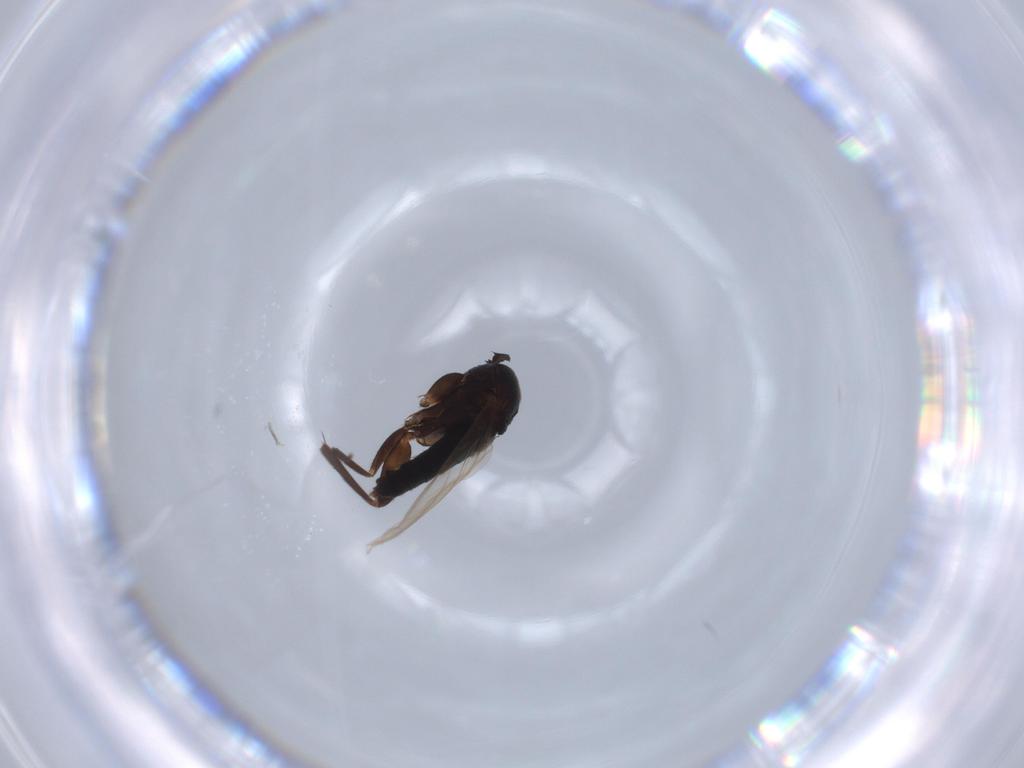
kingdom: Animalia
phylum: Arthropoda
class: Insecta
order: Diptera
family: Phoridae
